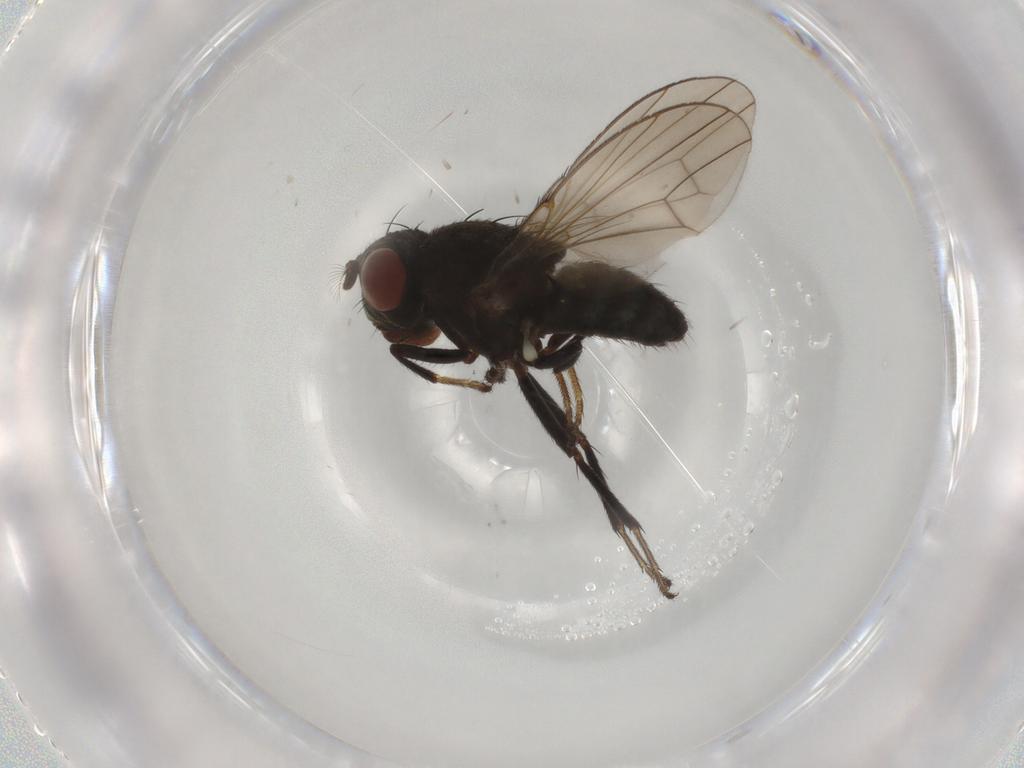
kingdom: Animalia
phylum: Arthropoda
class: Insecta
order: Diptera
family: Ephydridae
